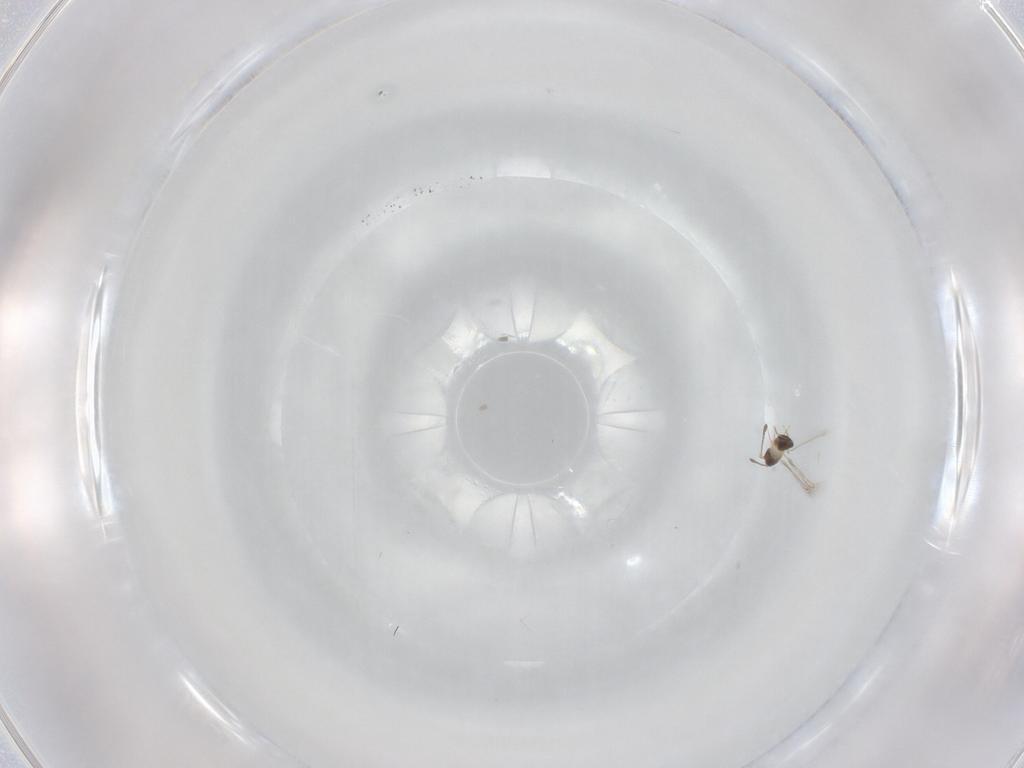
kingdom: Animalia
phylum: Arthropoda
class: Insecta
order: Hymenoptera
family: Mymaridae
